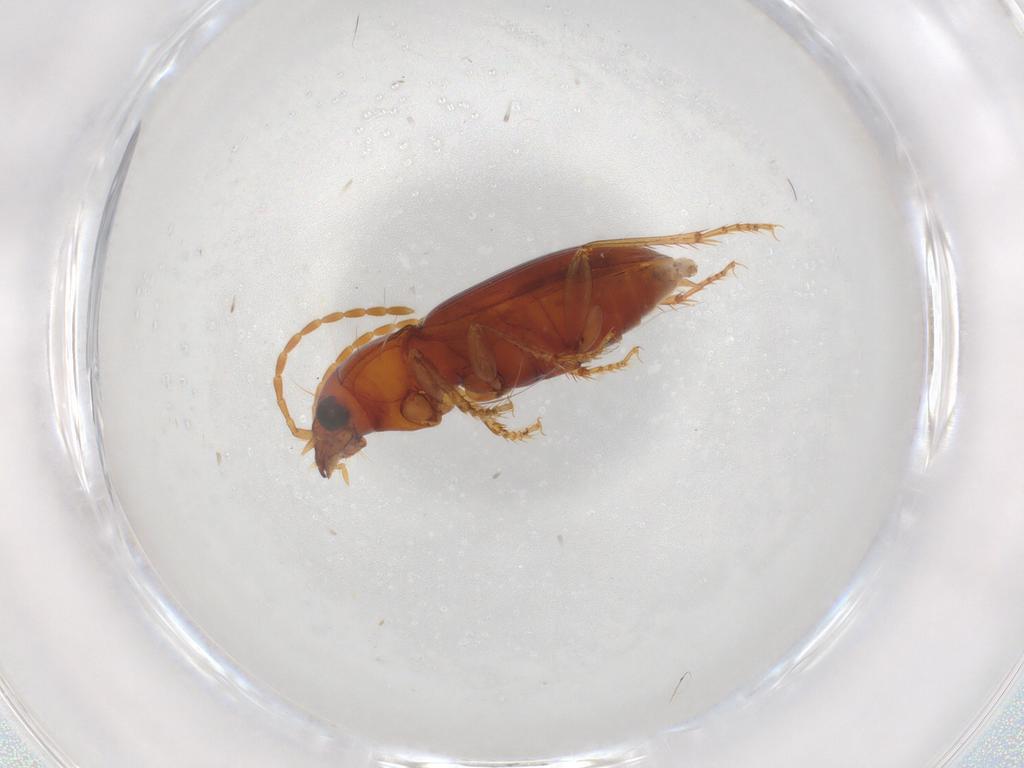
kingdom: Animalia
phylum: Arthropoda
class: Insecta
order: Coleoptera
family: Carabidae
